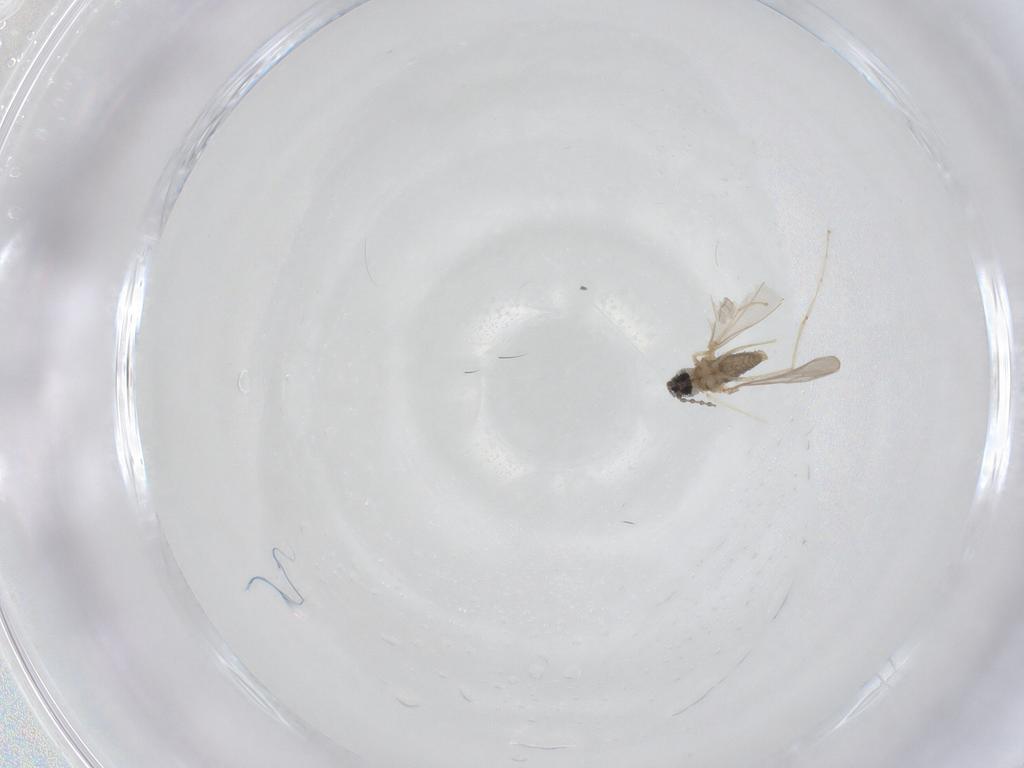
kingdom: Animalia
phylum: Arthropoda
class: Insecta
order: Diptera
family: Cecidomyiidae
